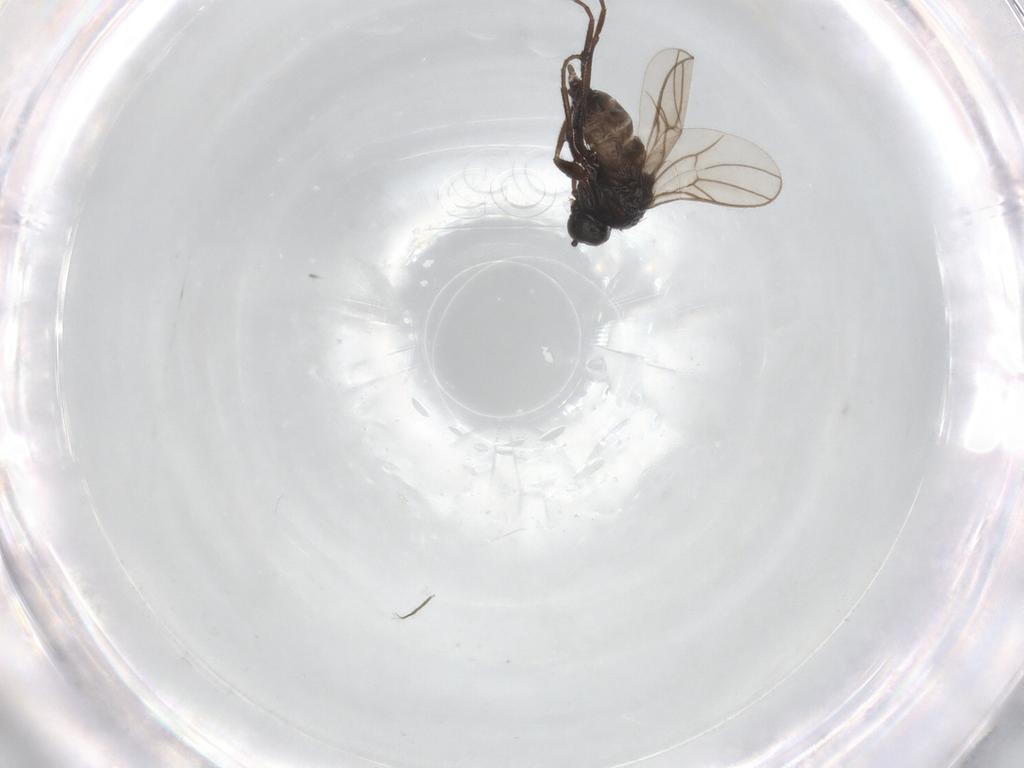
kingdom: Animalia
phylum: Arthropoda
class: Insecta
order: Diptera
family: Hybotidae
